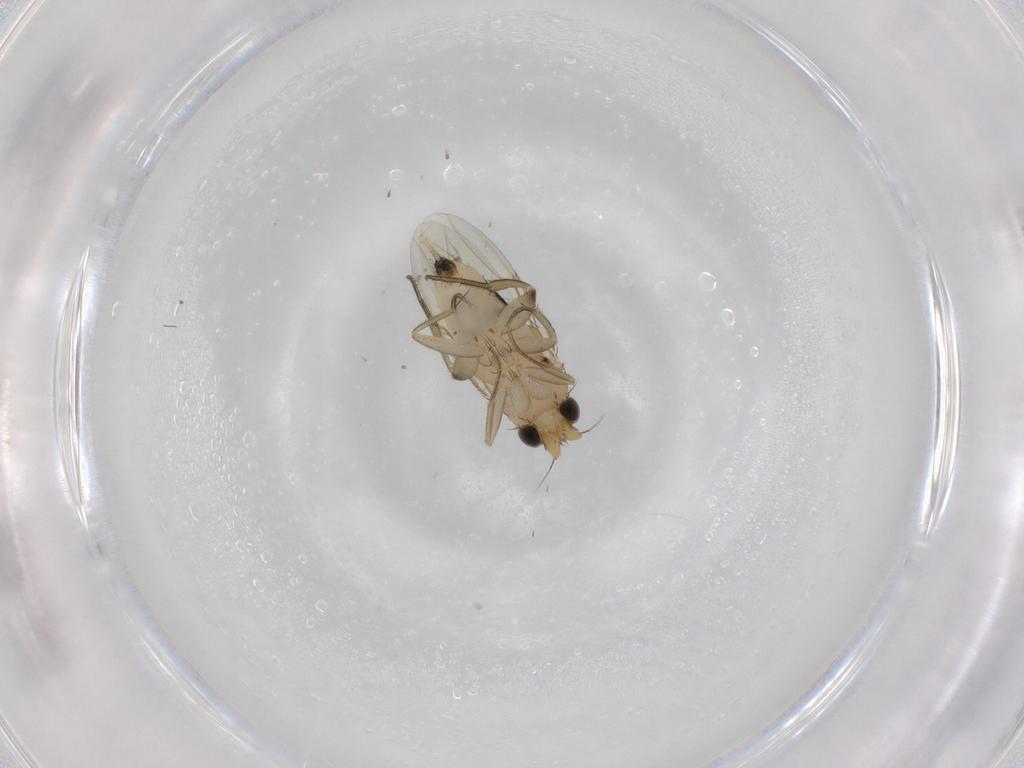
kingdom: Animalia
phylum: Arthropoda
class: Insecta
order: Diptera
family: Phoridae
